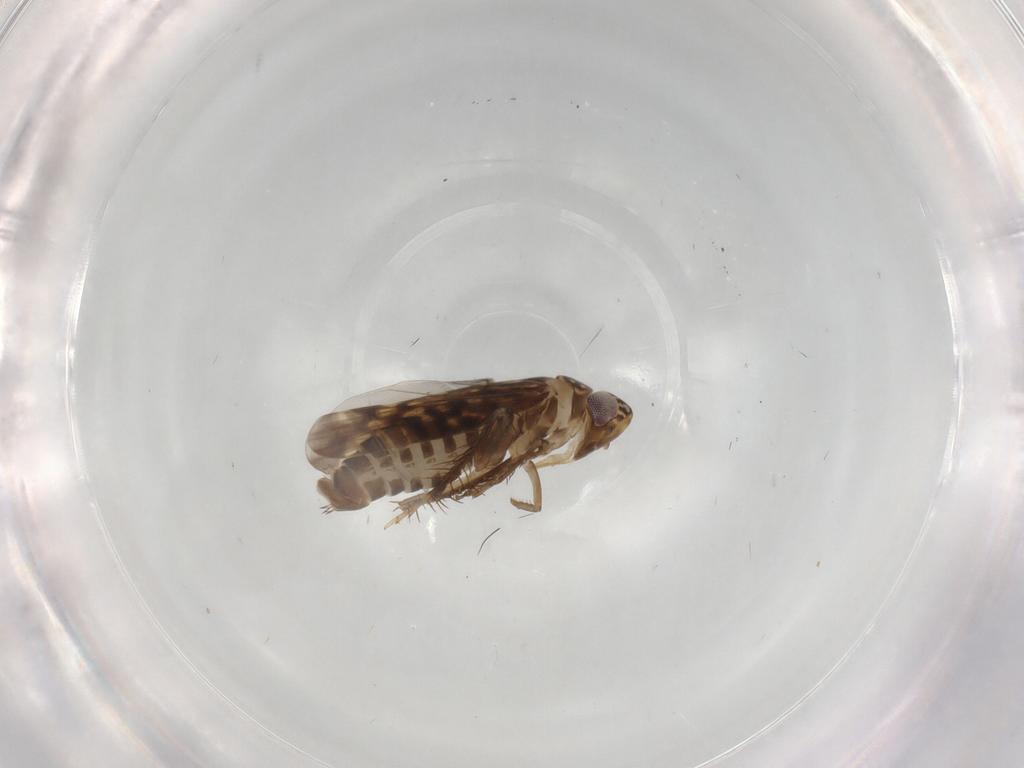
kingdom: Animalia
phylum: Arthropoda
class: Insecta
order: Hemiptera
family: Cicadellidae
